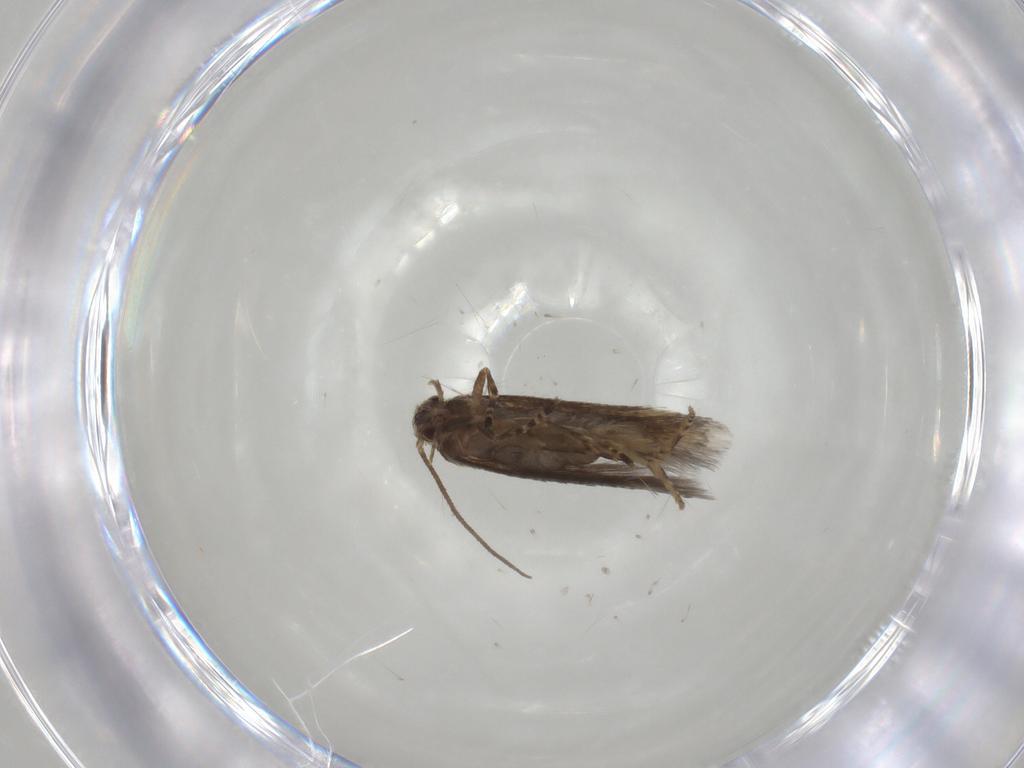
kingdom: Animalia
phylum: Arthropoda
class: Insecta
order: Lepidoptera
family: Elachistidae
